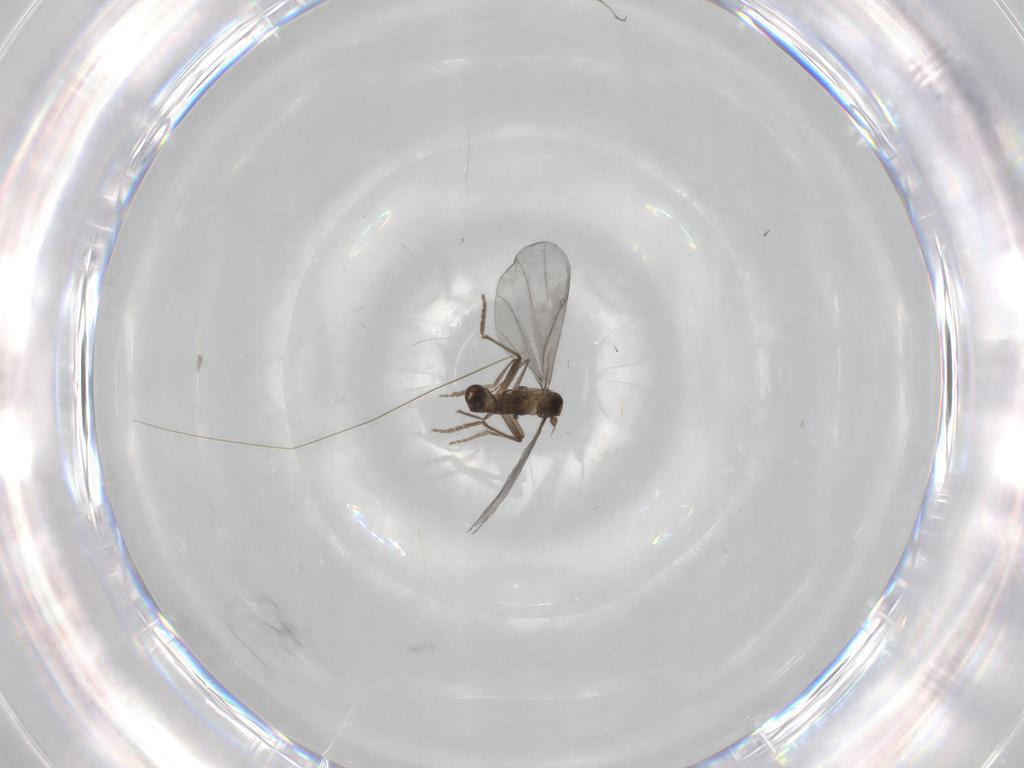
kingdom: Animalia
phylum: Arthropoda
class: Insecta
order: Diptera
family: Phoridae
